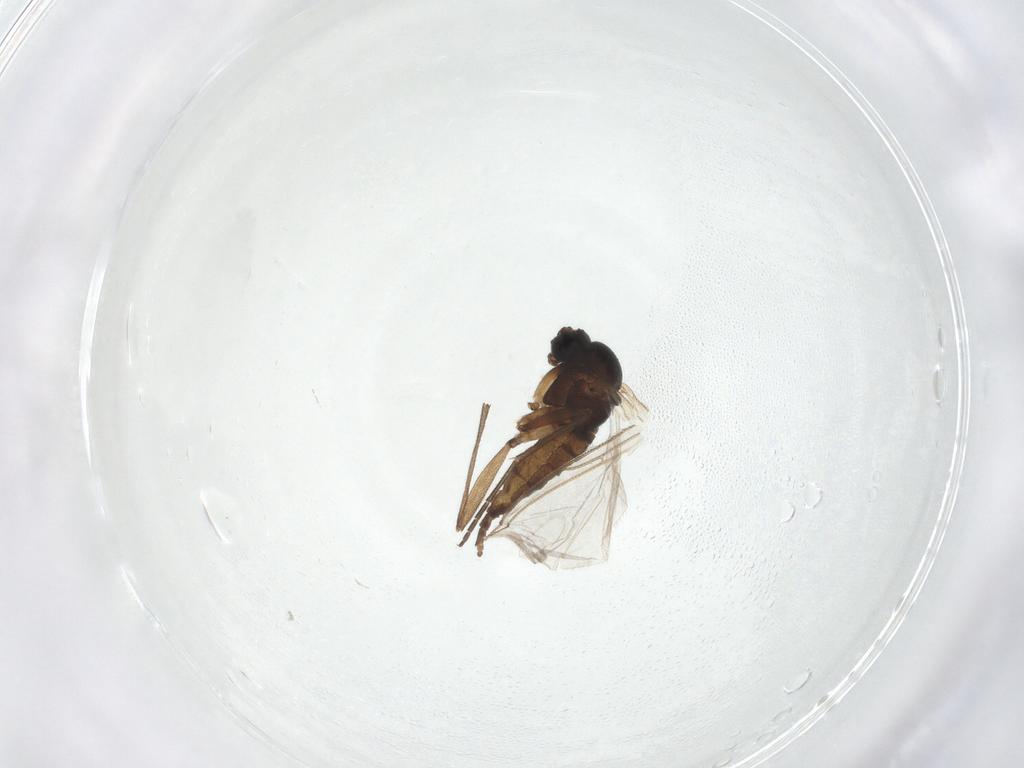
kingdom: Animalia
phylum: Arthropoda
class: Insecta
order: Diptera
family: Sciaridae
